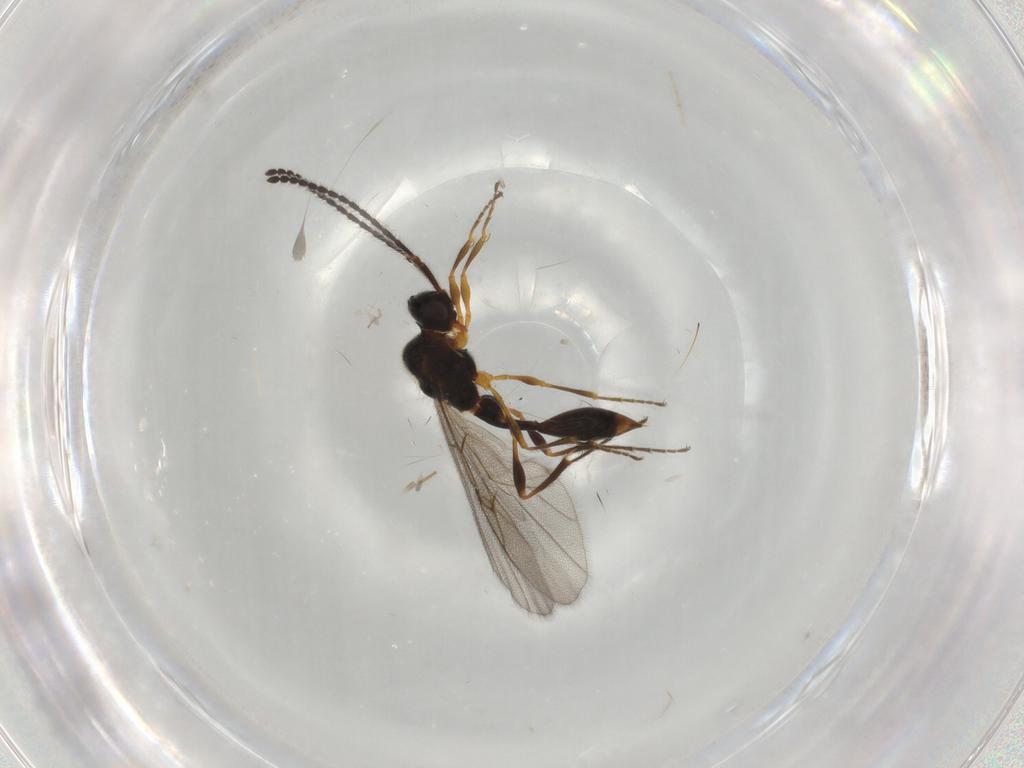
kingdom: Animalia
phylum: Arthropoda
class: Insecta
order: Hymenoptera
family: Diapriidae
